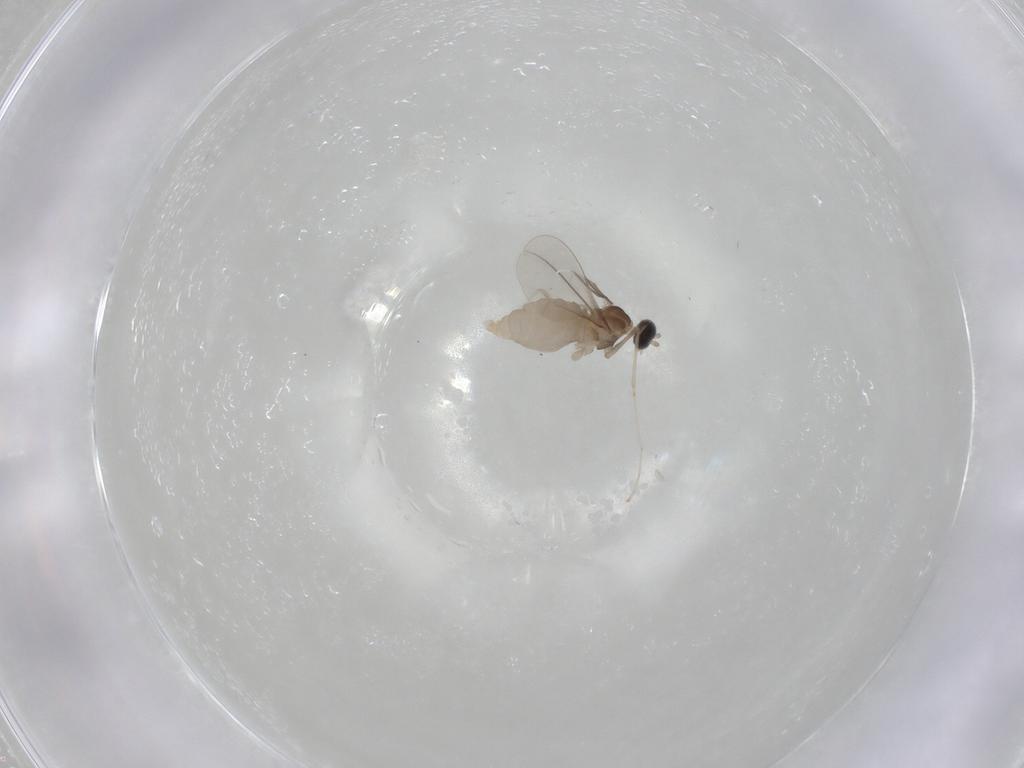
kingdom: Animalia
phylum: Arthropoda
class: Insecta
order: Diptera
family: Cecidomyiidae
